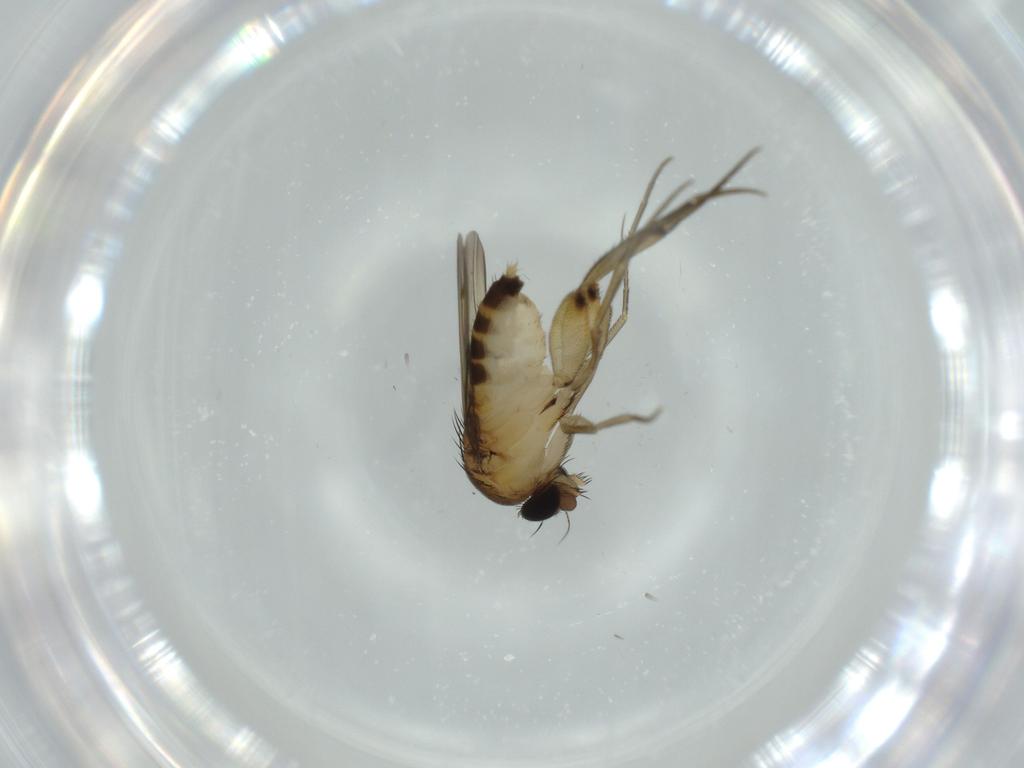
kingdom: Animalia
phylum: Arthropoda
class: Insecta
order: Diptera
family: Phoridae
